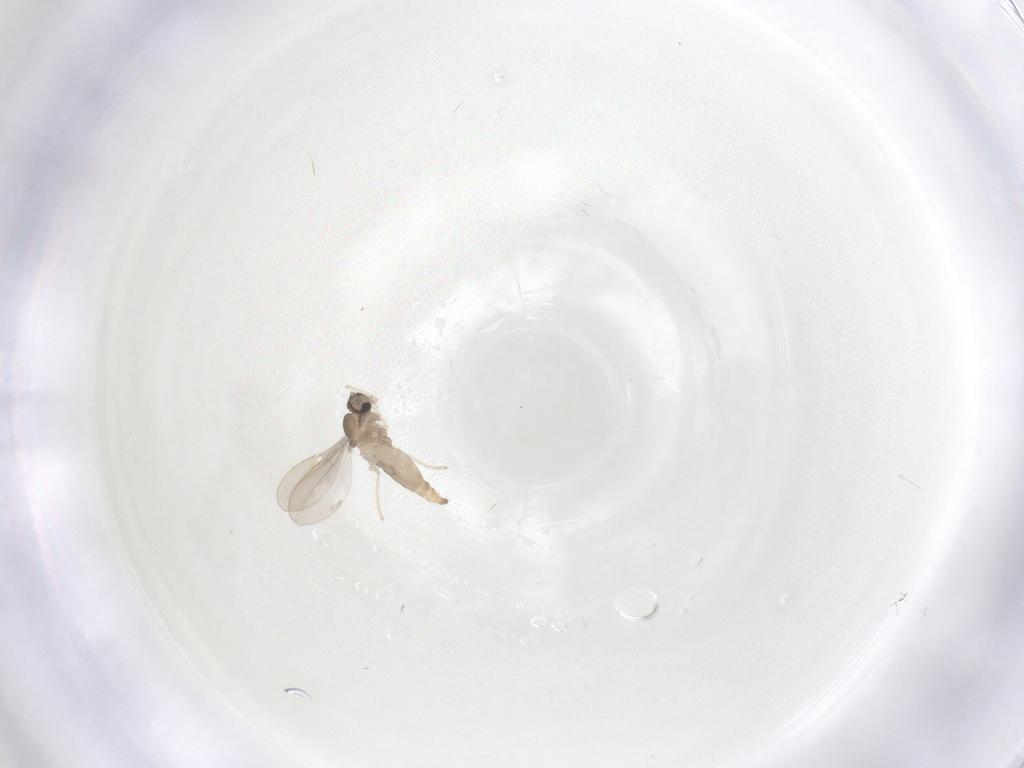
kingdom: Animalia
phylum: Arthropoda
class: Insecta
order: Diptera
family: Cecidomyiidae
